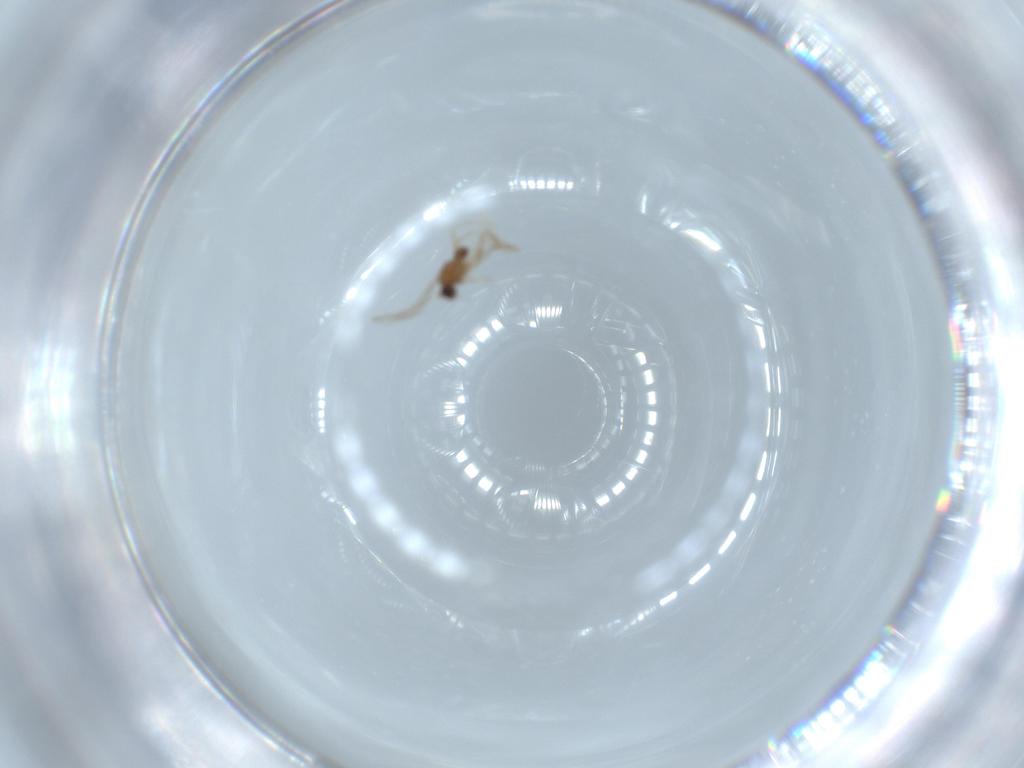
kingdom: Animalia
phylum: Arthropoda
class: Insecta
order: Diptera
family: Cecidomyiidae
